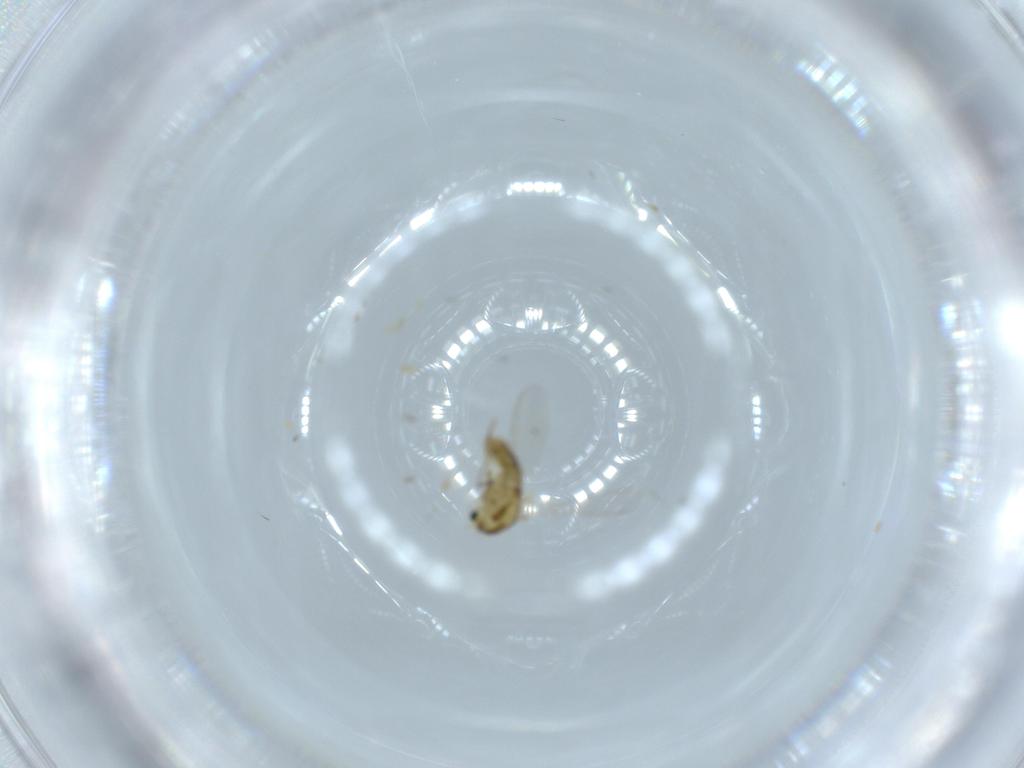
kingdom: Animalia
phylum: Arthropoda
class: Insecta
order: Diptera
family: Chironomidae
